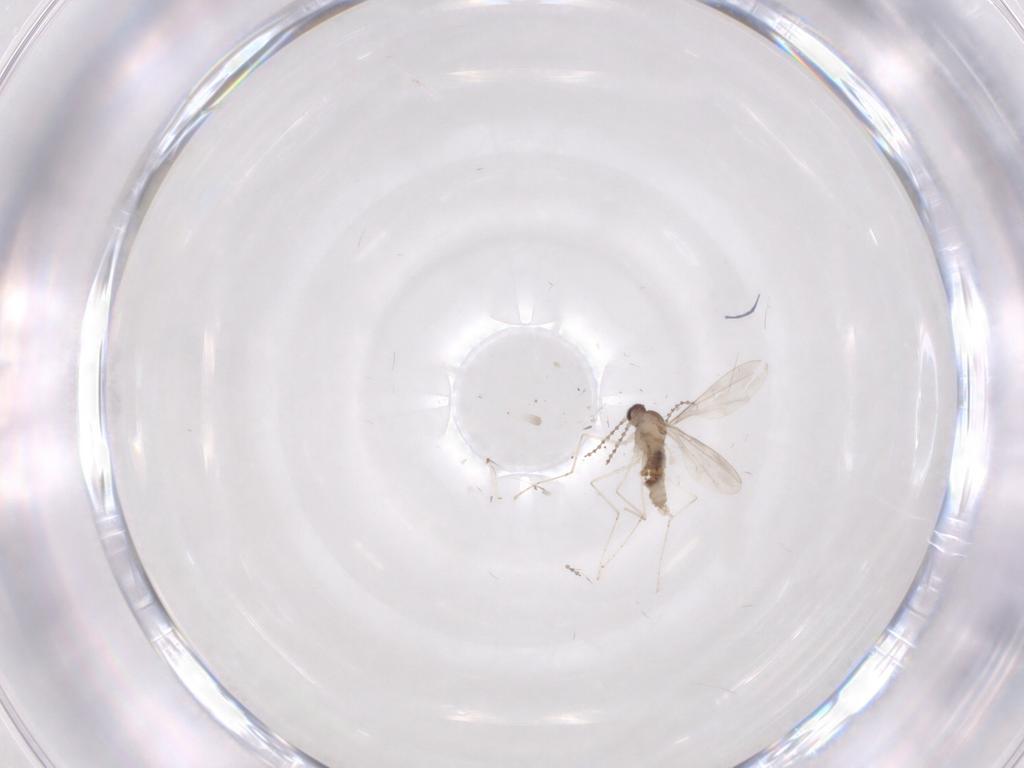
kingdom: Animalia
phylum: Arthropoda
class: Insecta
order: Diptera
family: Cecidomyiidae
